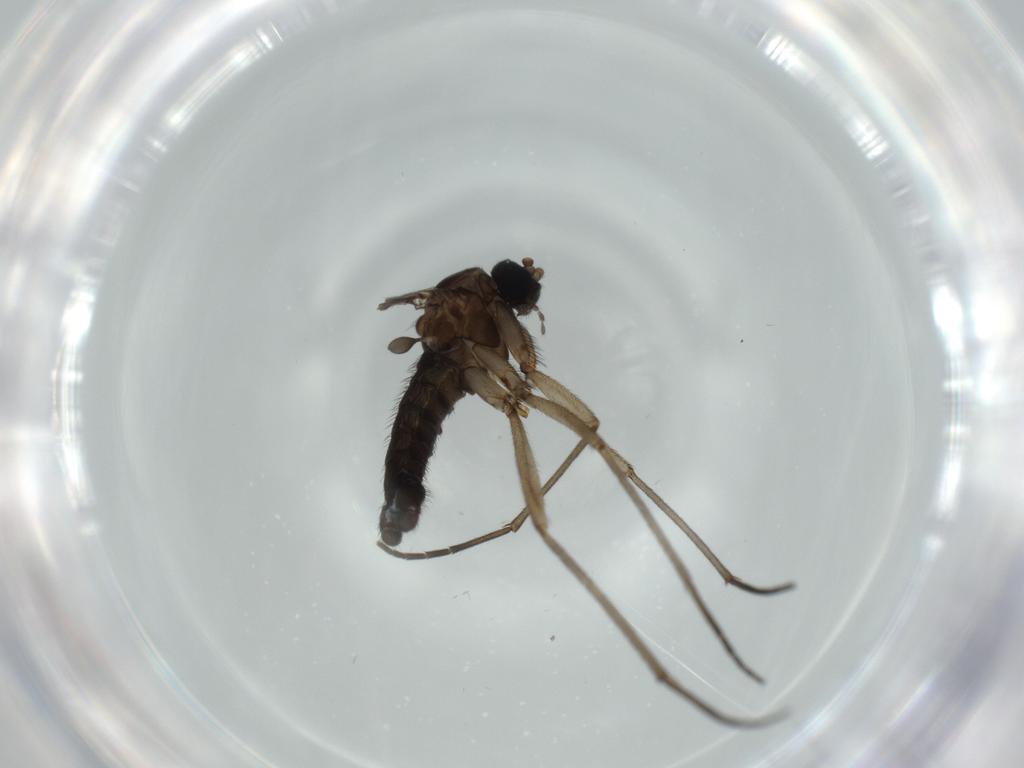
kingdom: Animalia
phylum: Arthropoda
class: Insecta
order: Diptera
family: Sciaridae
